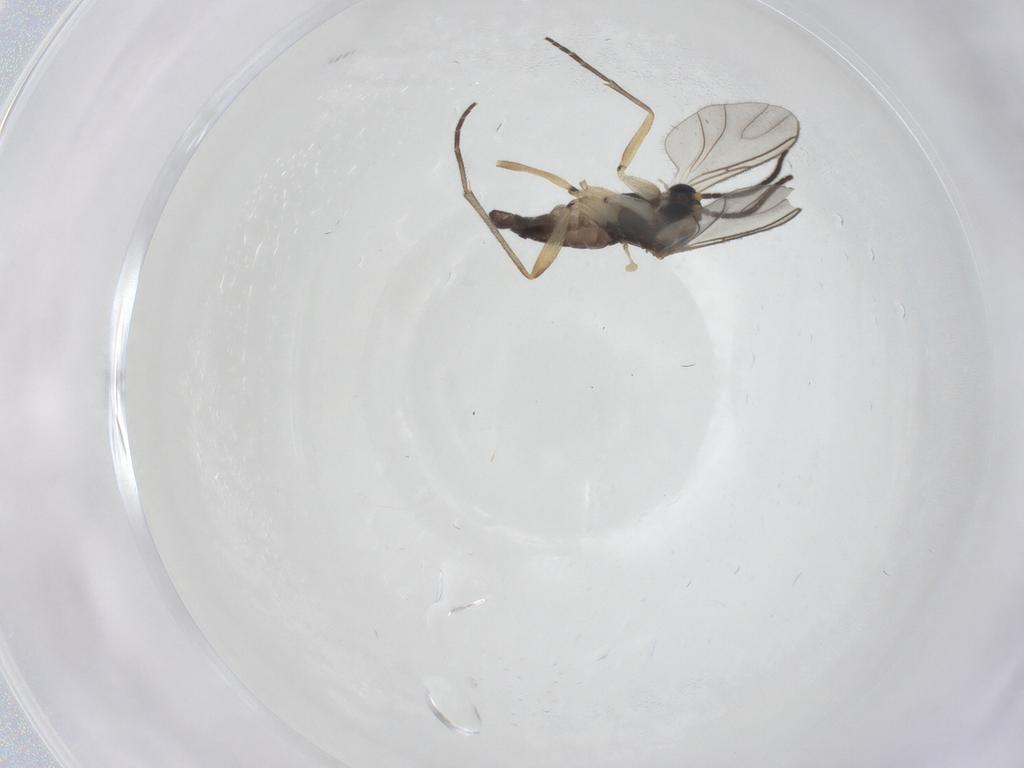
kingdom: Animalia
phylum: Arthropoda
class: Insecta
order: Diptera
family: Sciaridae
